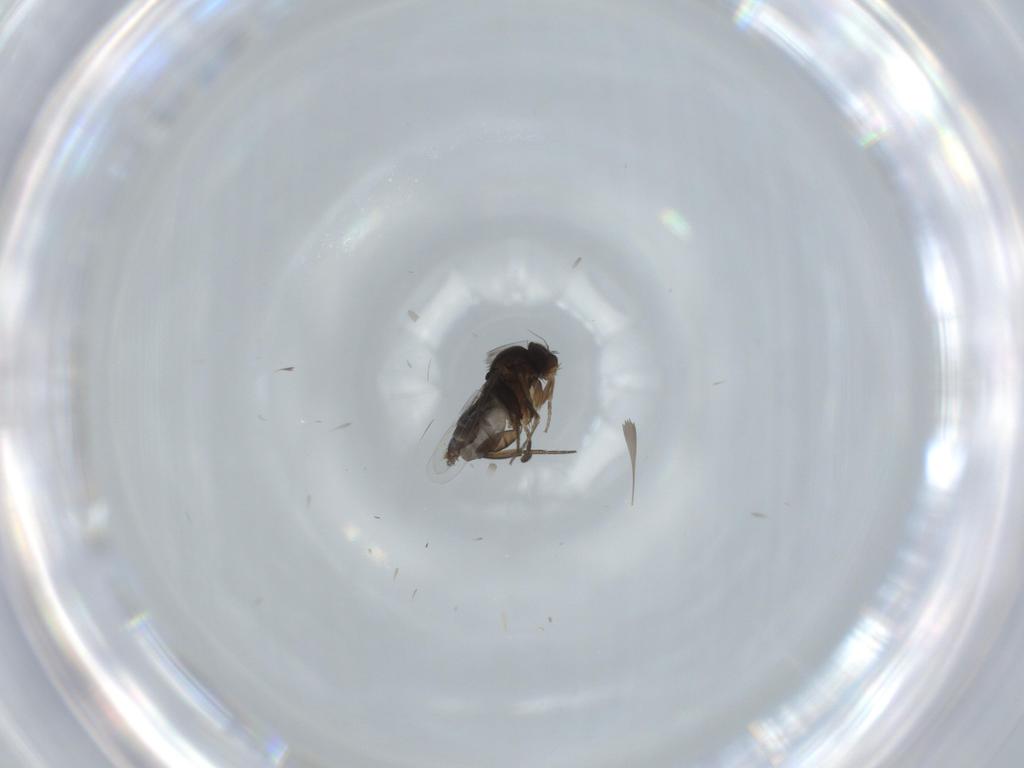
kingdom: Animalia
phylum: Arthropoda
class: Insecta
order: Diptera
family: Phoridae
